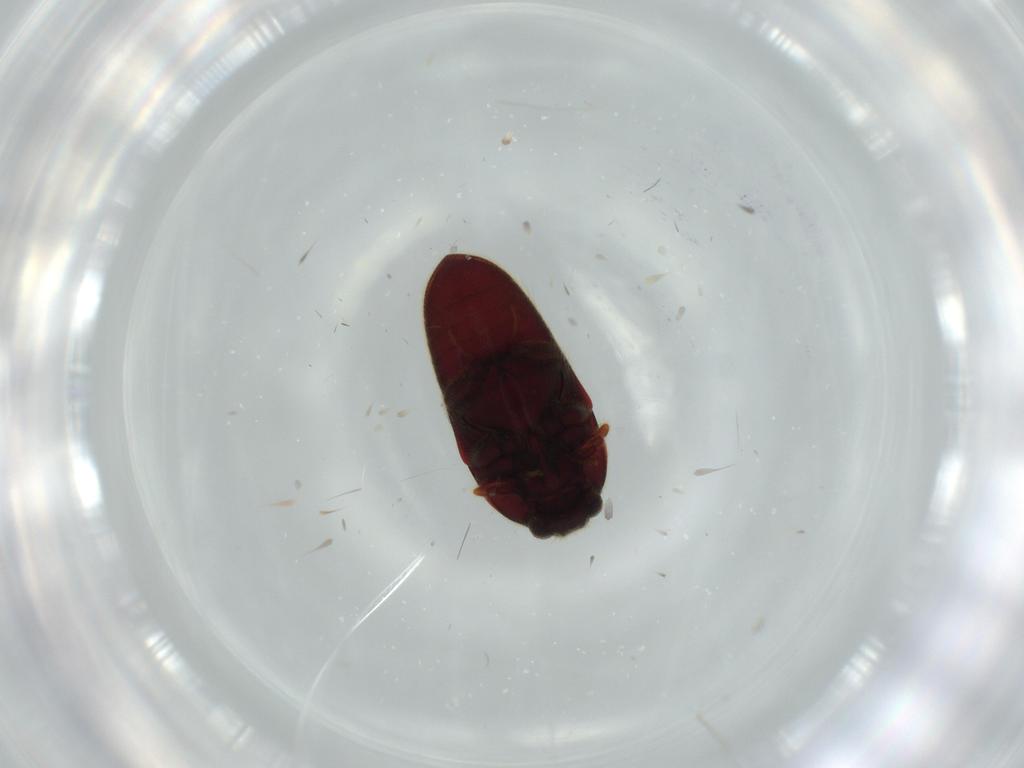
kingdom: Animalia
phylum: Arthropoda
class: Insecta
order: Coleoptera
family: Throscidae
